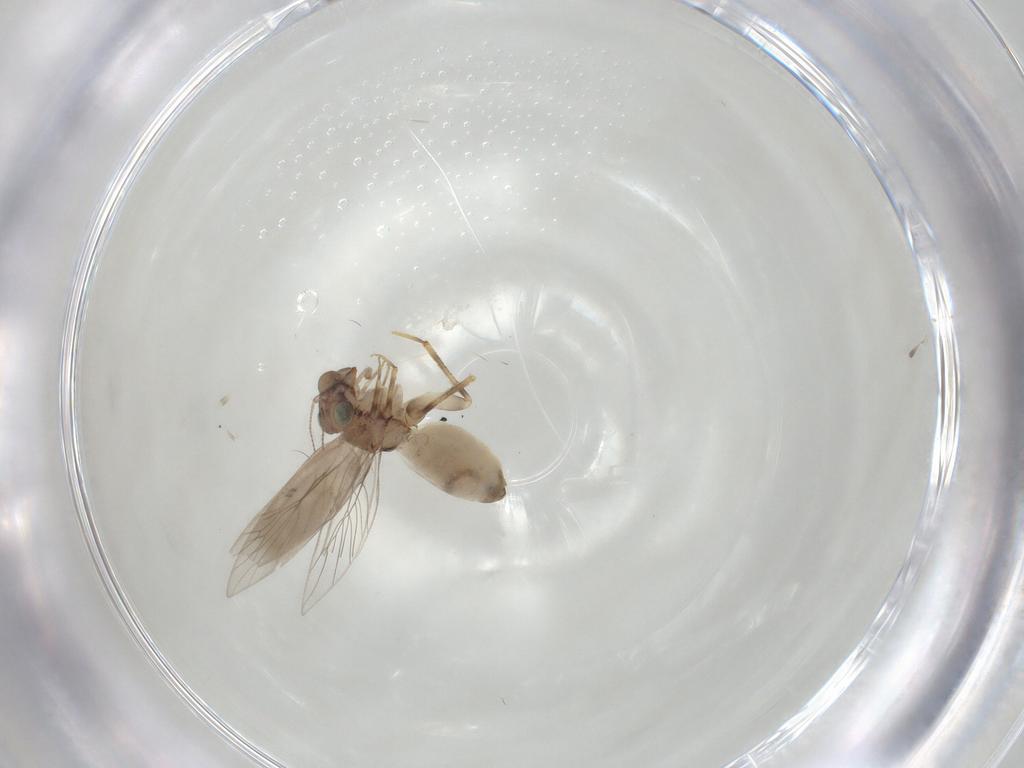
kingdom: Animalia
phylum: Arthropoda
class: Insecta
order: Psocodea
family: Lepidopsocidae
